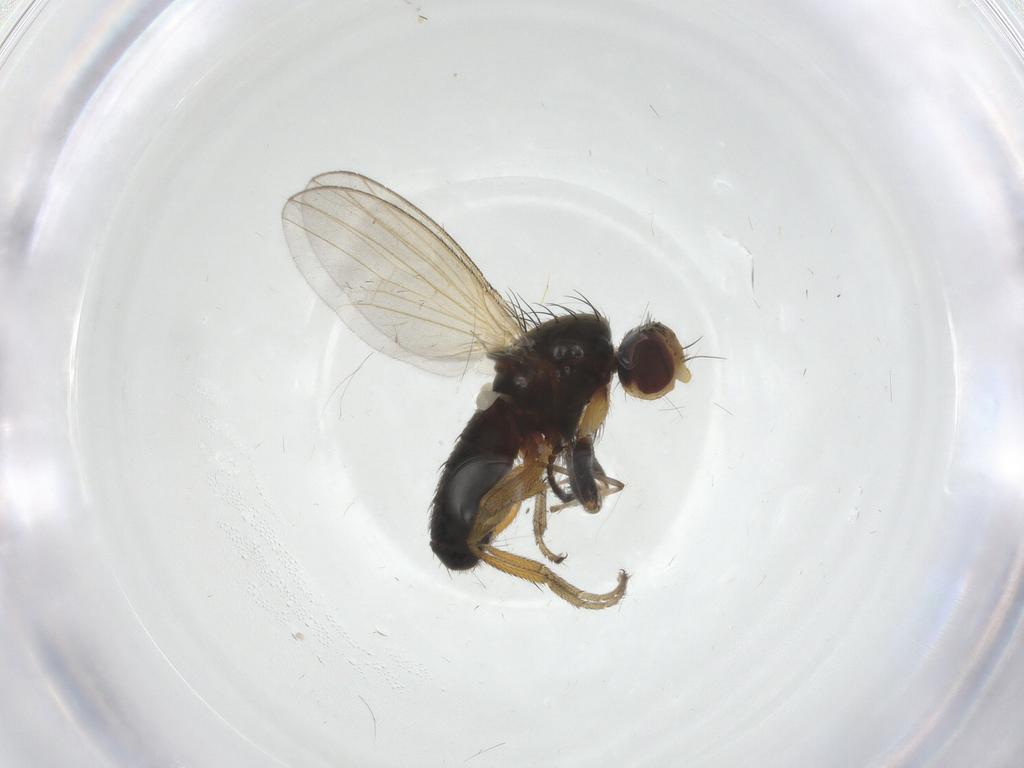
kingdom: Animalia
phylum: Arthropoda
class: Insecta
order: Diptera
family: Heleomyzidae
